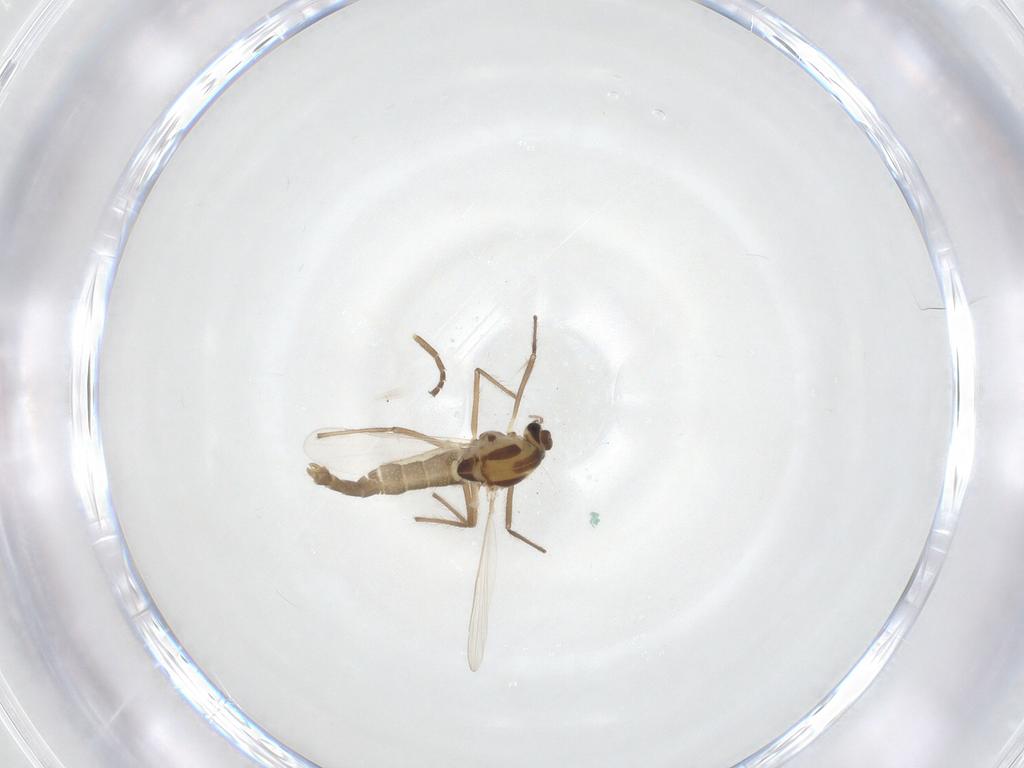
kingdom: Animalia
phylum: Arthropoda
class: Insecta
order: Diptera
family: Chironomidae
